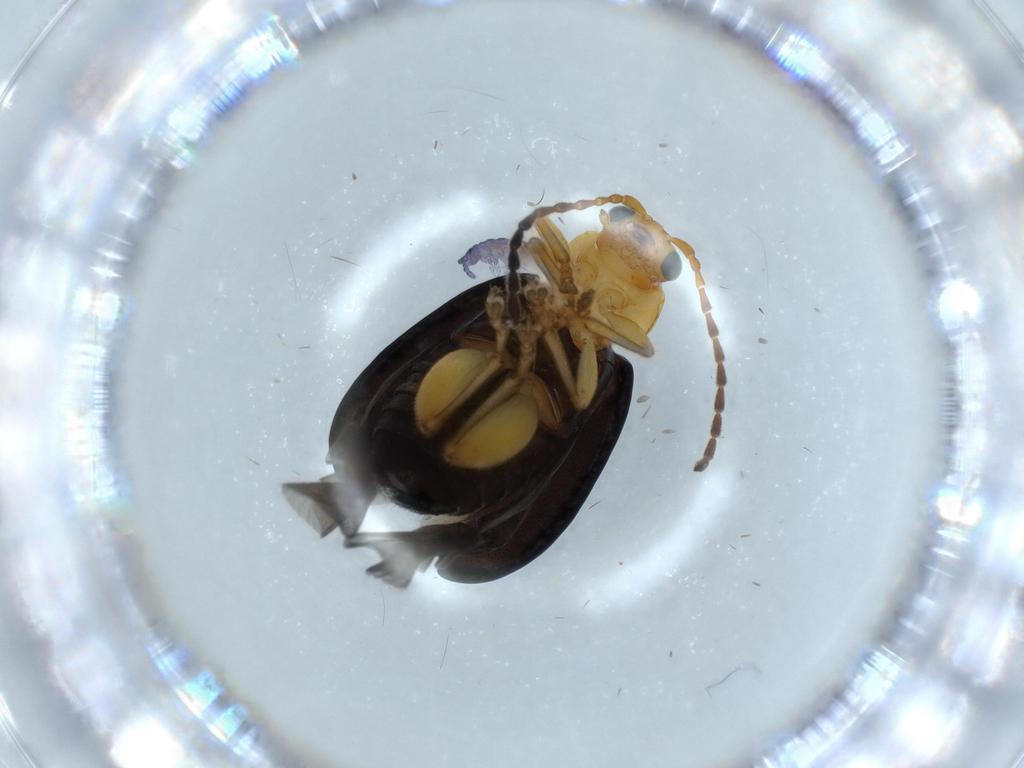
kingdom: Animalia
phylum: Arthropoda
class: Insecta
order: Coleoptera
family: Chrysomelidae
